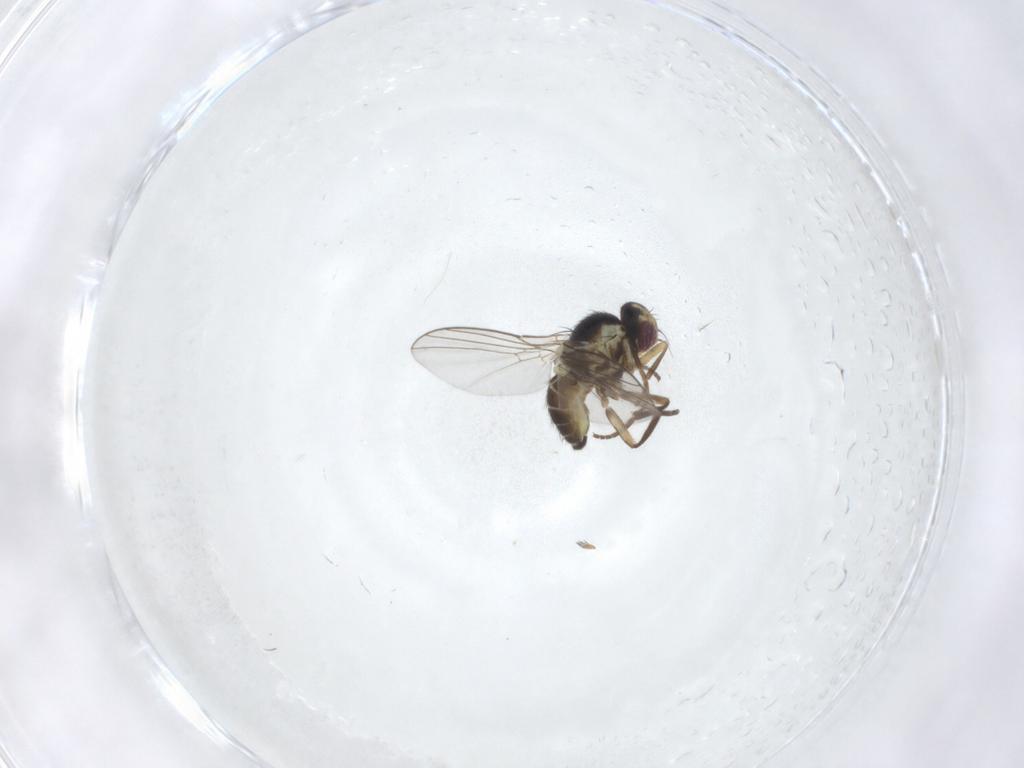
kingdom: Animalia
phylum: Arthropoda
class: Insecta
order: Diptera
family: Agromyzidae
